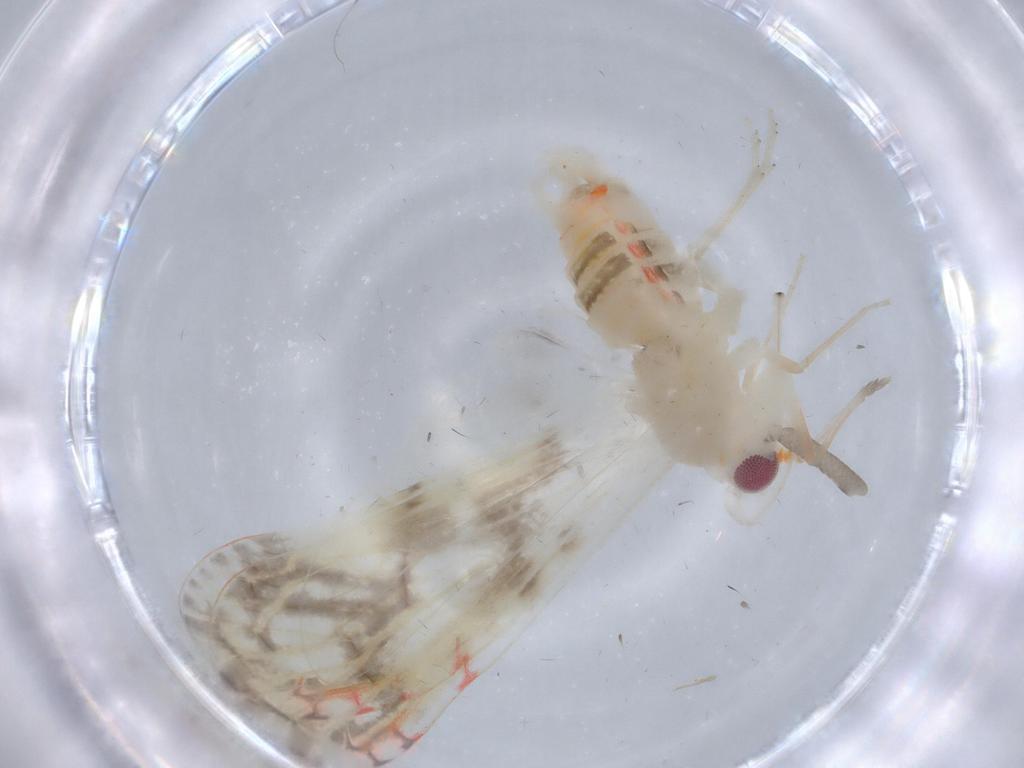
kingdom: Animalia
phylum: Arthropoda
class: Insecta
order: Hemiptera
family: Derbidae
